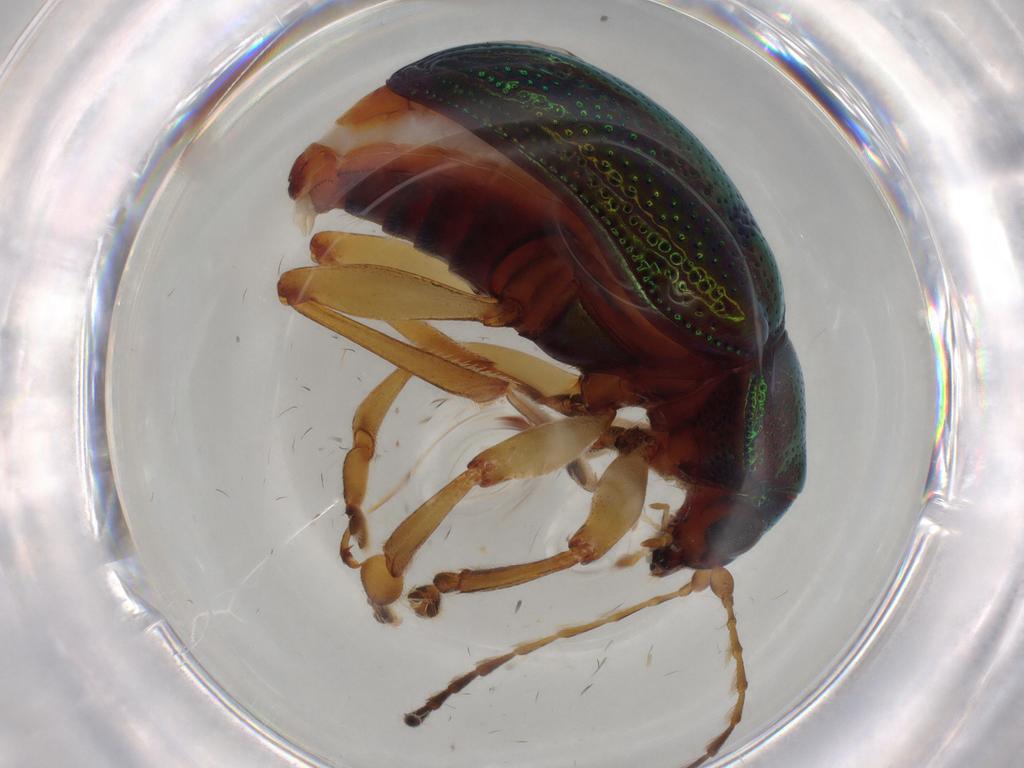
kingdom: Animalia
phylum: Arthropoda
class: Insecta
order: Coleoptera
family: Chrysomelidae
